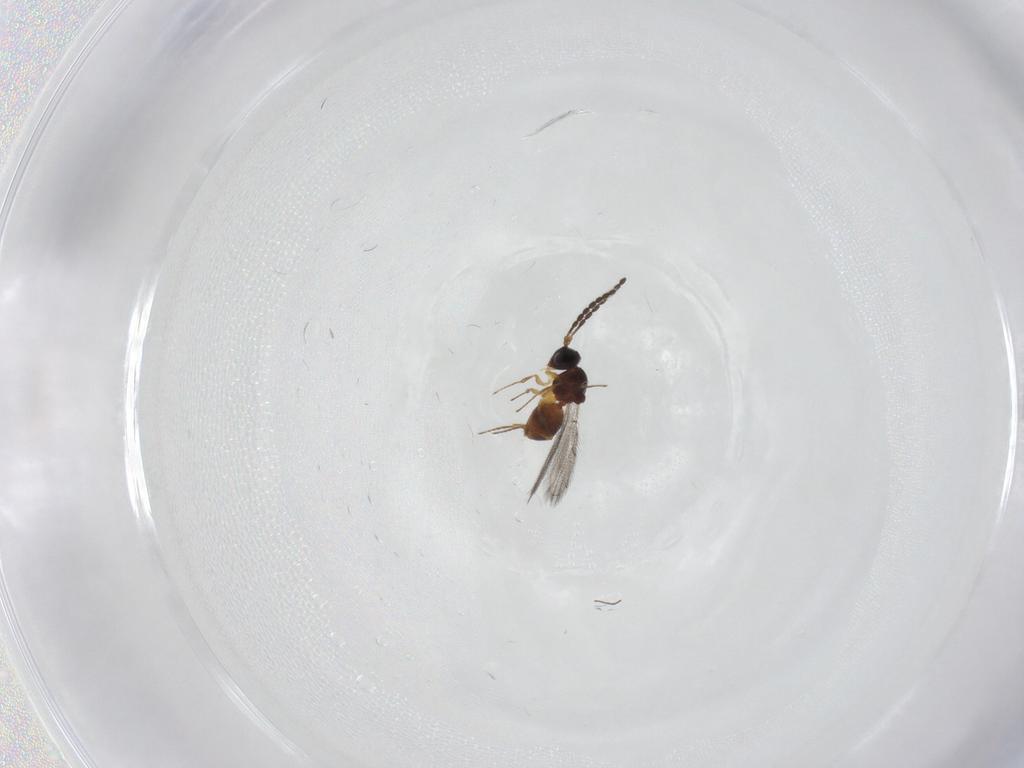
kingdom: Animalia
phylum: Arthropoda
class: Insecta
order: Hymenoptera
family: Figitidae
